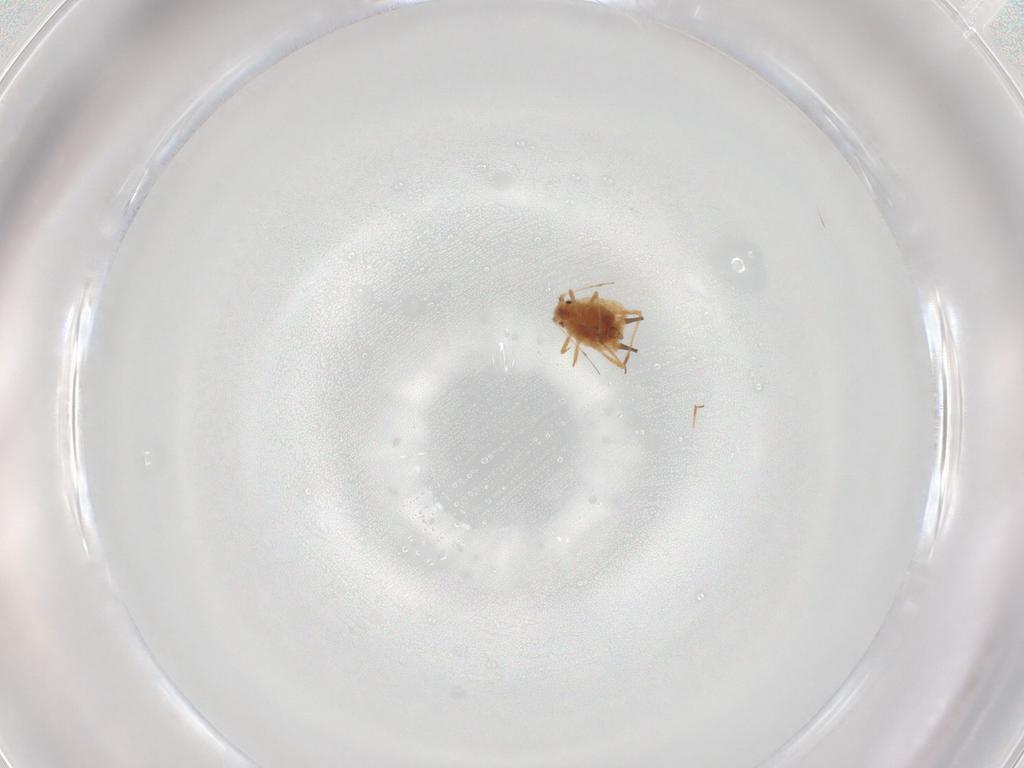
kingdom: Animalia
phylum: Arthropoda
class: Insecta
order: Hemiptera
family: Aphididae
